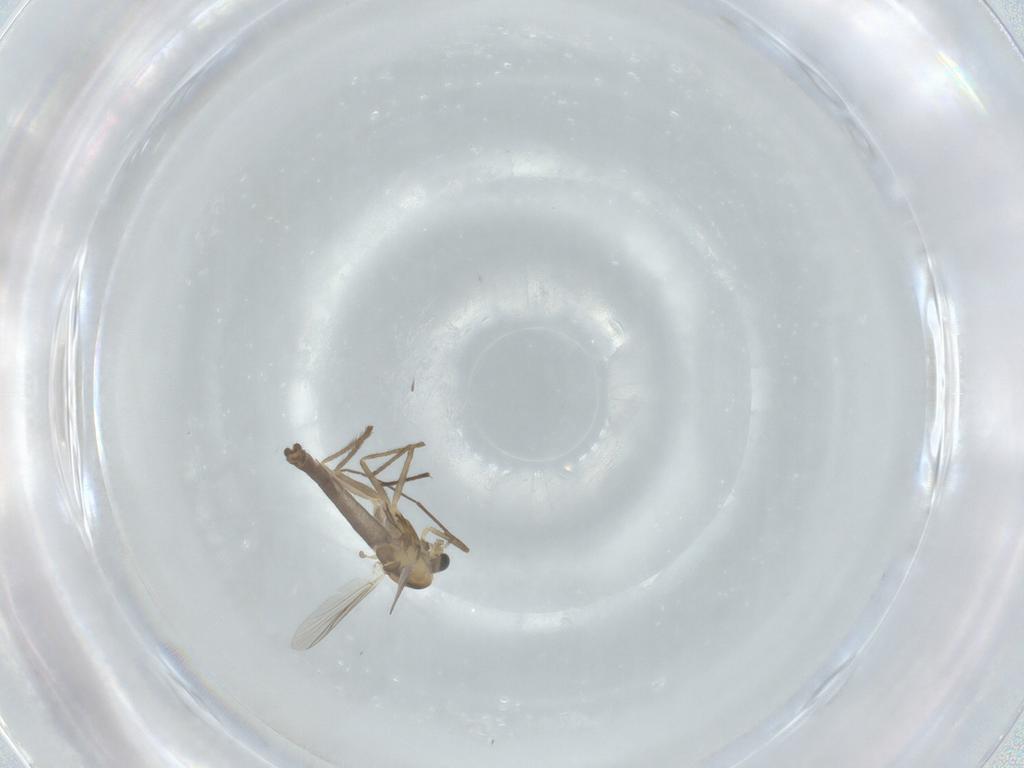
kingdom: Animalia
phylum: Arthropoda
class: Insecta
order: Diptera
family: Chironomidae
